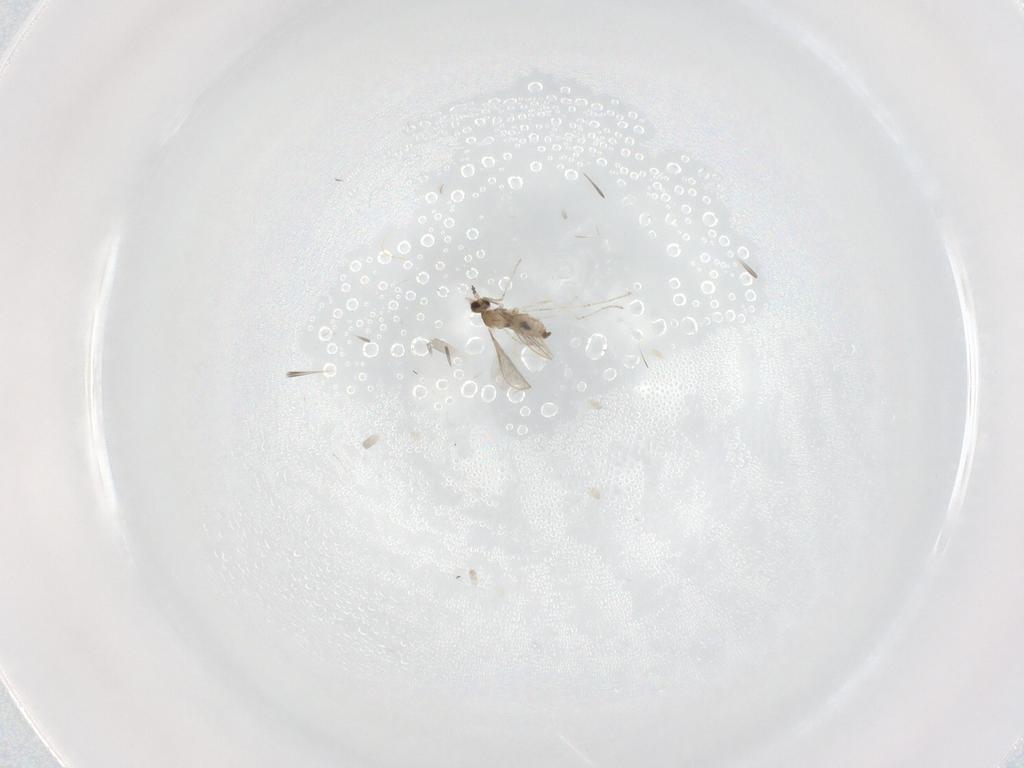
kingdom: Animalia
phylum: Arthropoda
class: Insecta
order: Diptera
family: Cecidomyiidae
